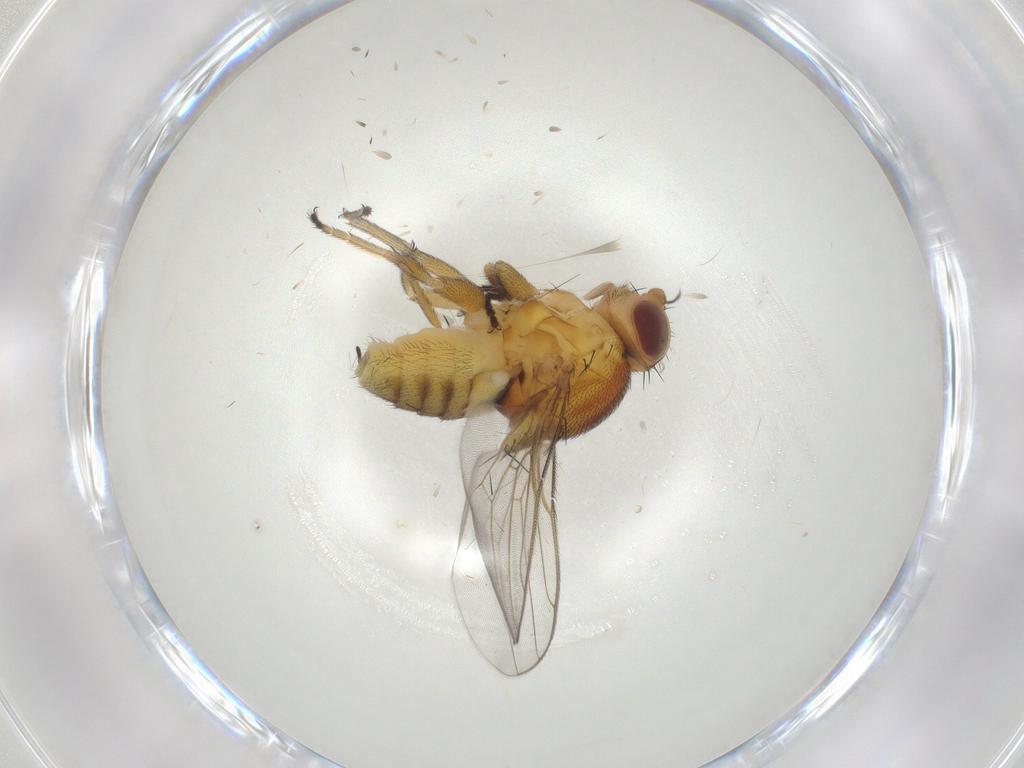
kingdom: Animalia
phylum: Arthropoda
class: Insecta
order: Diptera
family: Chloropidae
